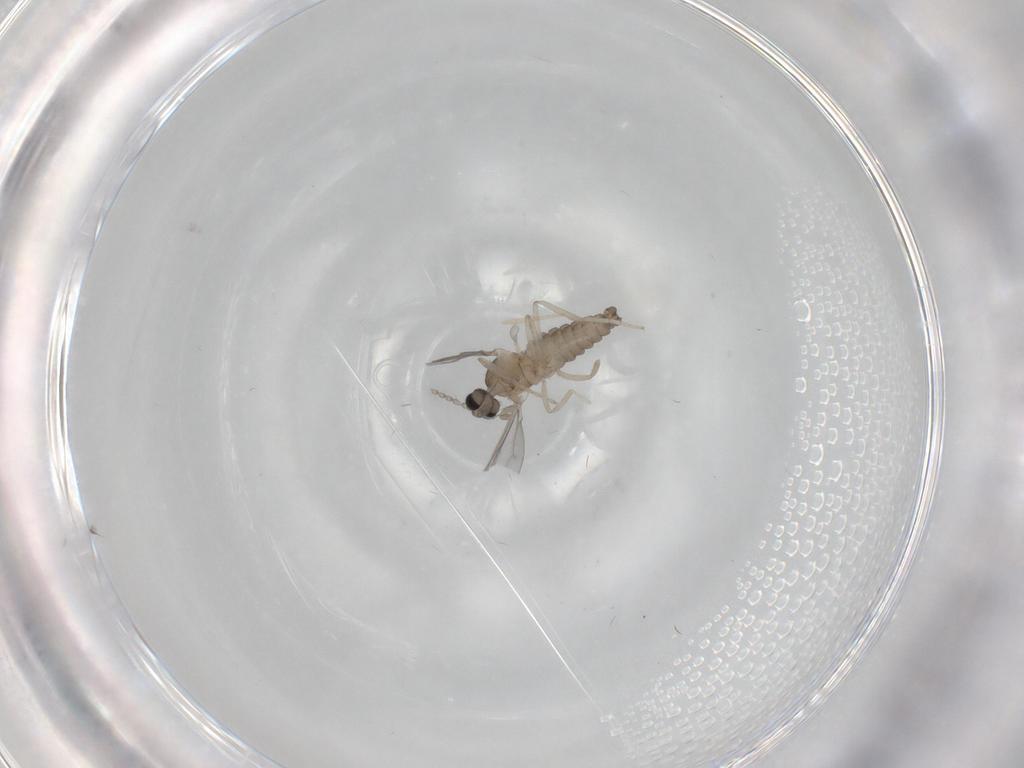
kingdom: Animalia
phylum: Arthropoda
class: Insecta
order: Diptera
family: Cecidomyiidae
